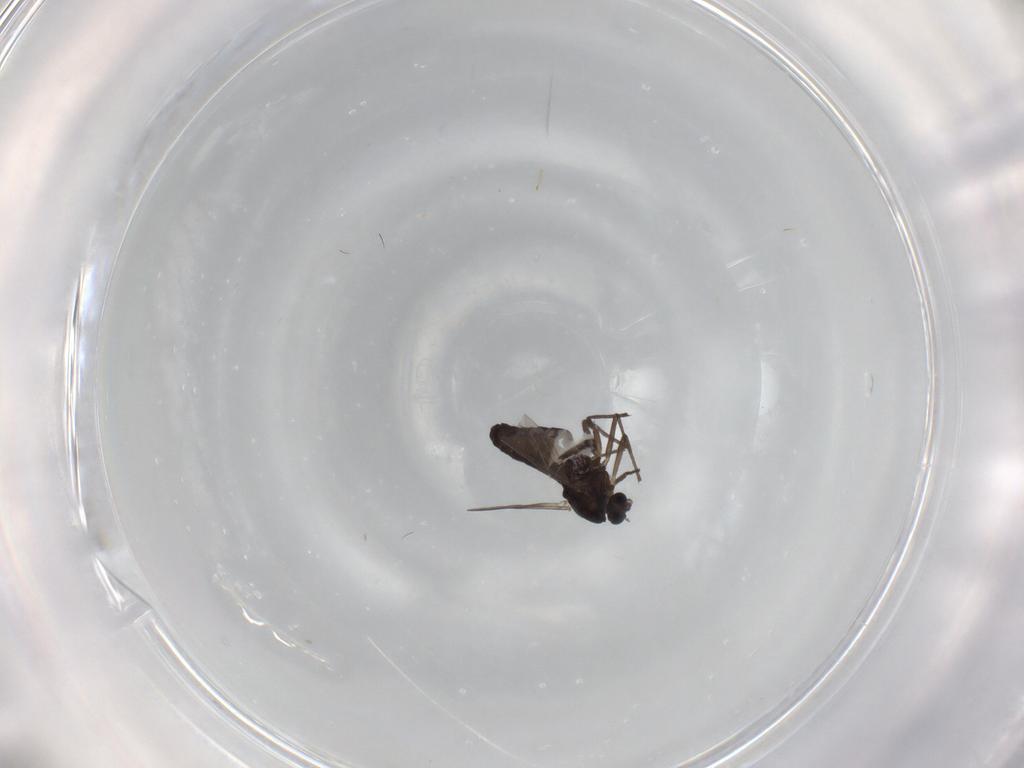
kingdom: Animalia
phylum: Arthropoda
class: Insecta
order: Diptera
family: Chironomidae
